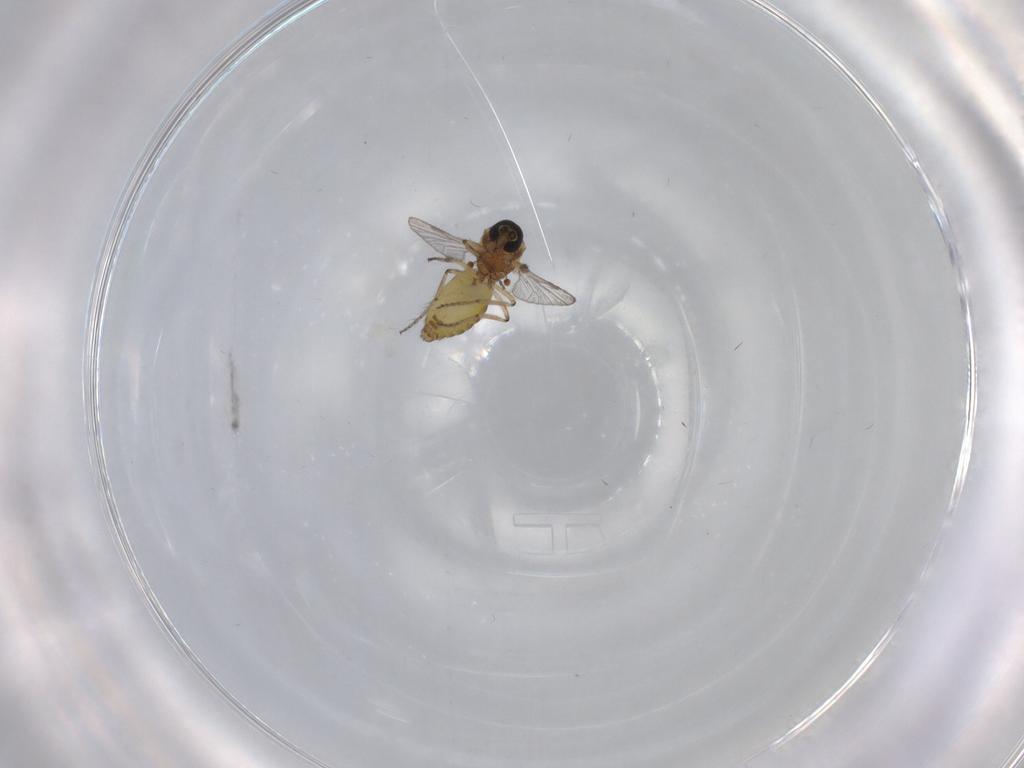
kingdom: Animalia
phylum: Arthropoda
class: Insecta
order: Diptera
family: Ceratopogonidae
